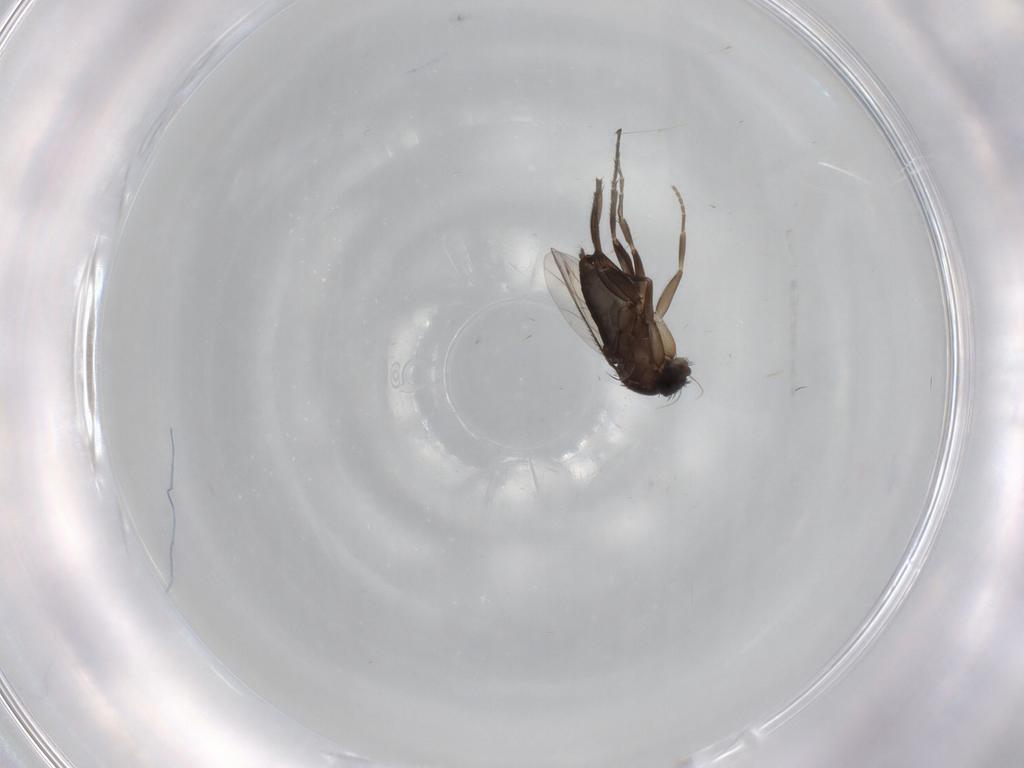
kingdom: Animalia
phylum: Arthropoda
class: Insecta
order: Diptera
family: Phoridae
